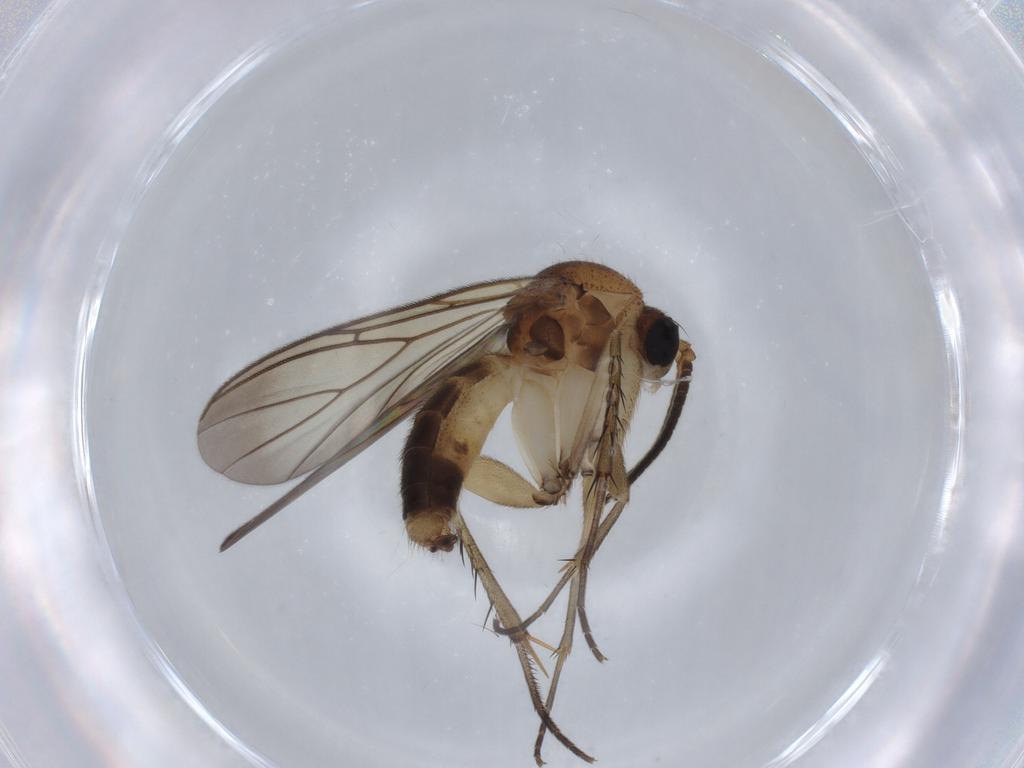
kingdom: Animalia
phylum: Arthropoda
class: Insecta
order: Diptera
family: Mycetophilidae
